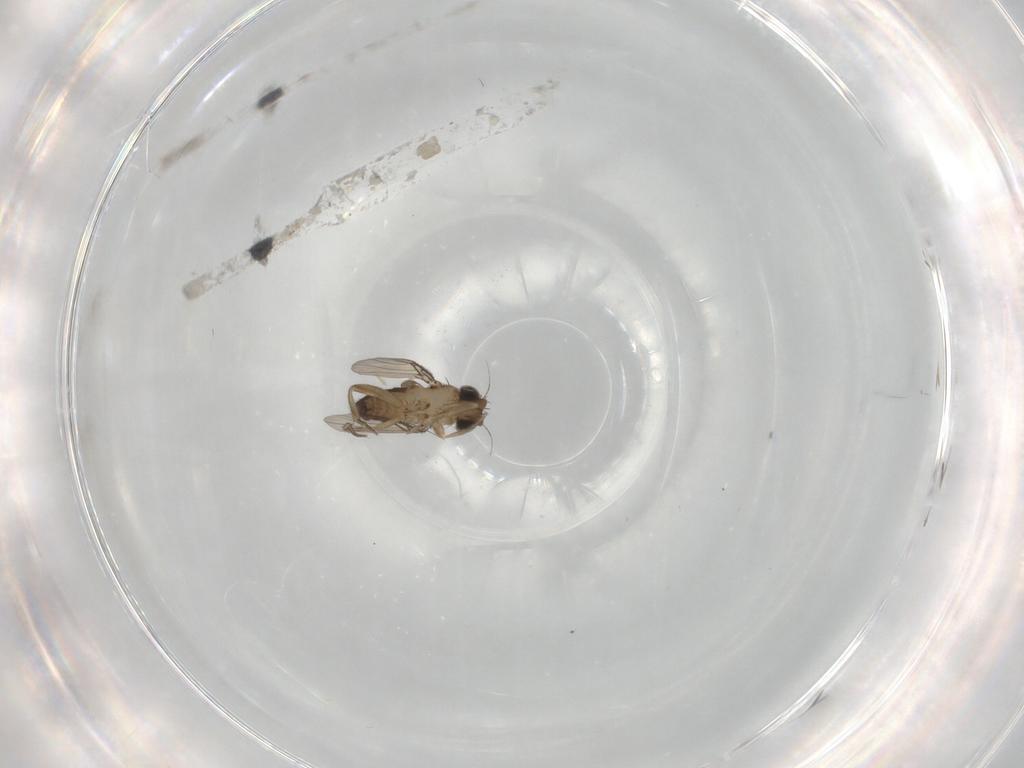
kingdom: Animalia
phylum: Arthropoda
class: Insecta
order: Diptera
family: Phoridae
